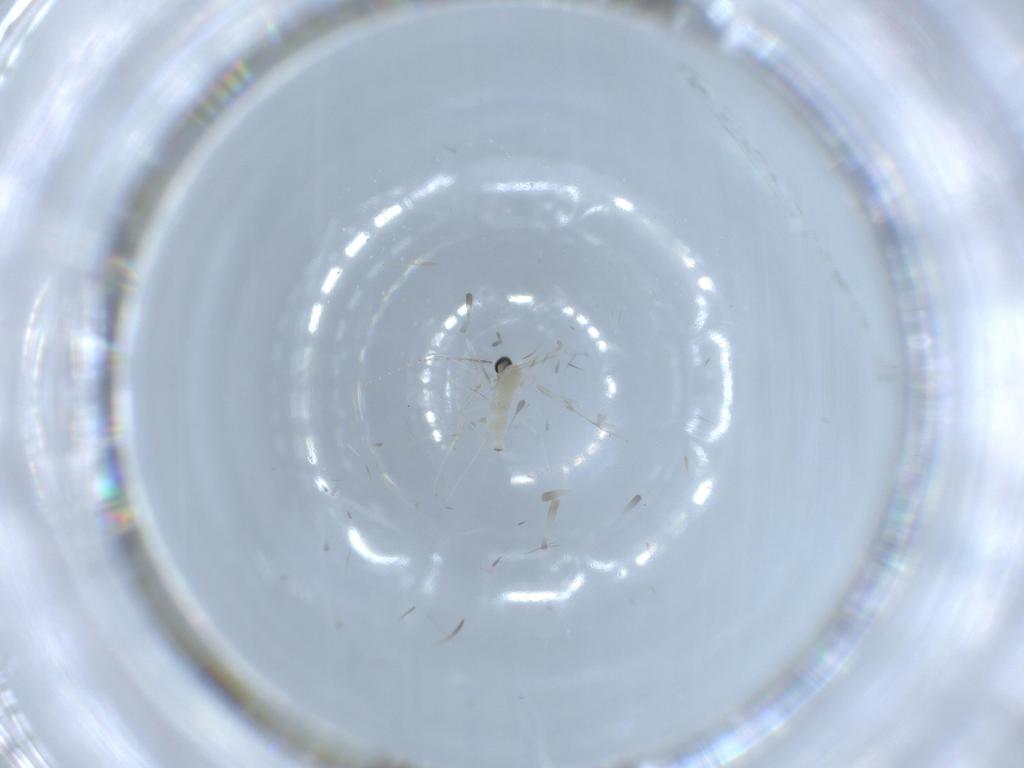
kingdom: Animalia
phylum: Arthropoda
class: Insecta
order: Diptera
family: Cecidomyiidae
